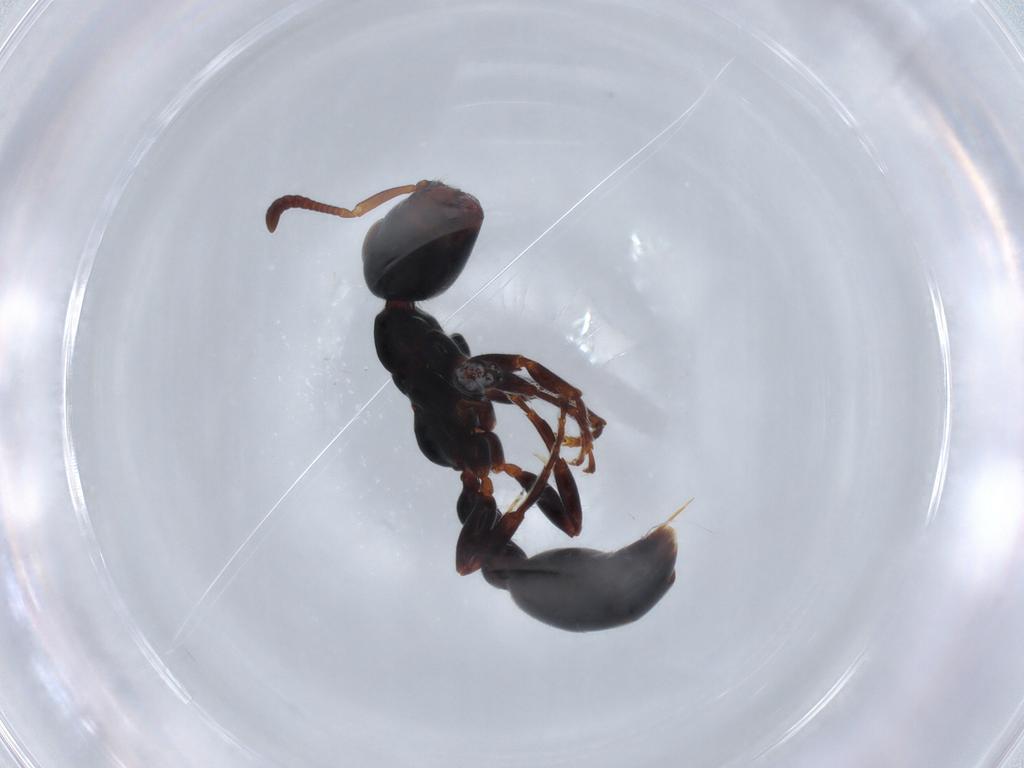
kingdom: Animalia
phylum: Arthropoda
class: Insecta
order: Hymenoptera
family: Formicidae
